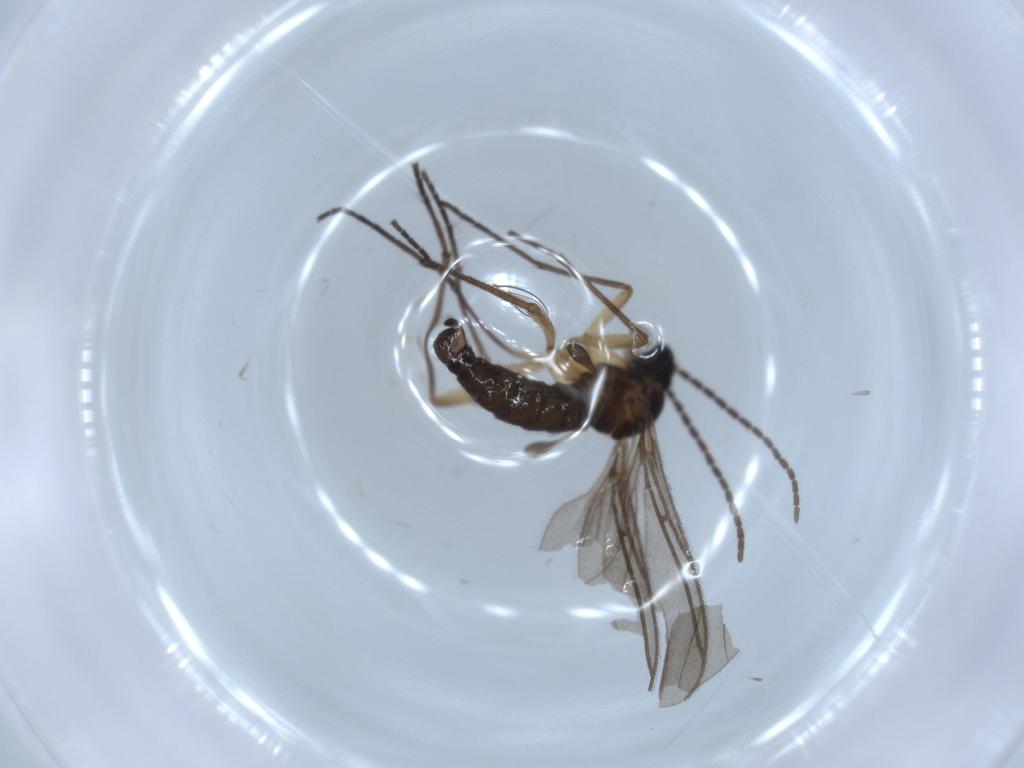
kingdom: Animalia
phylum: Arthropoda
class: Insecta
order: Diptera
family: Sciaridae
